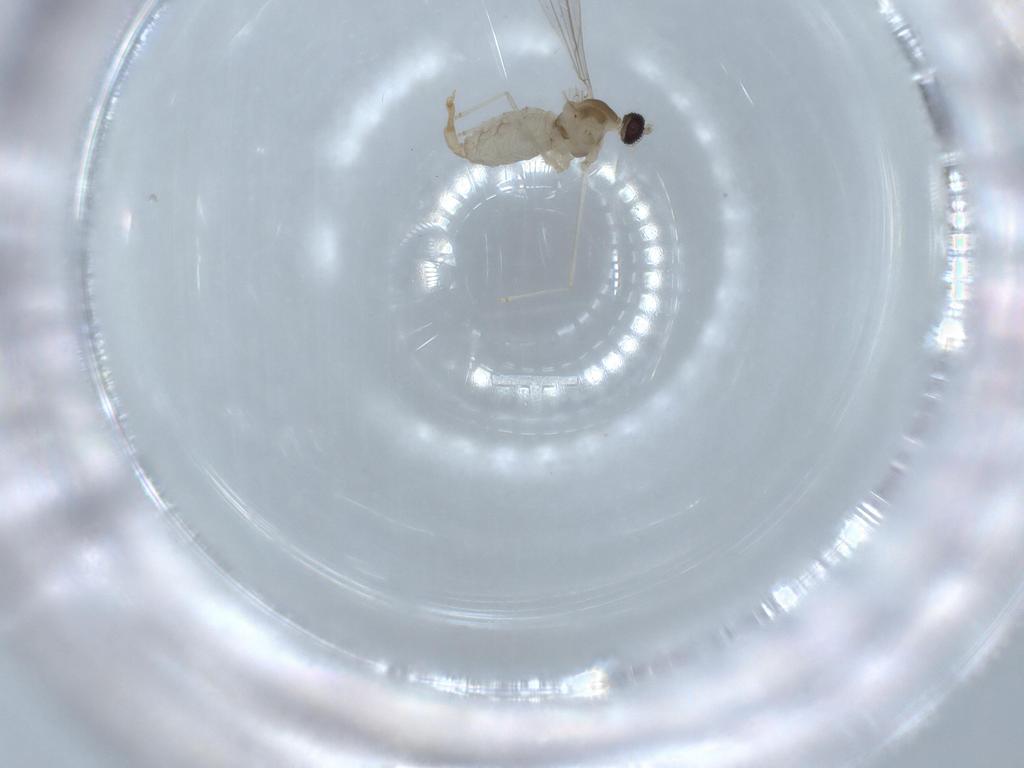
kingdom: Animalia
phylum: Arthropoda
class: Insecta
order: Diptera
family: Cecidomyiidae
